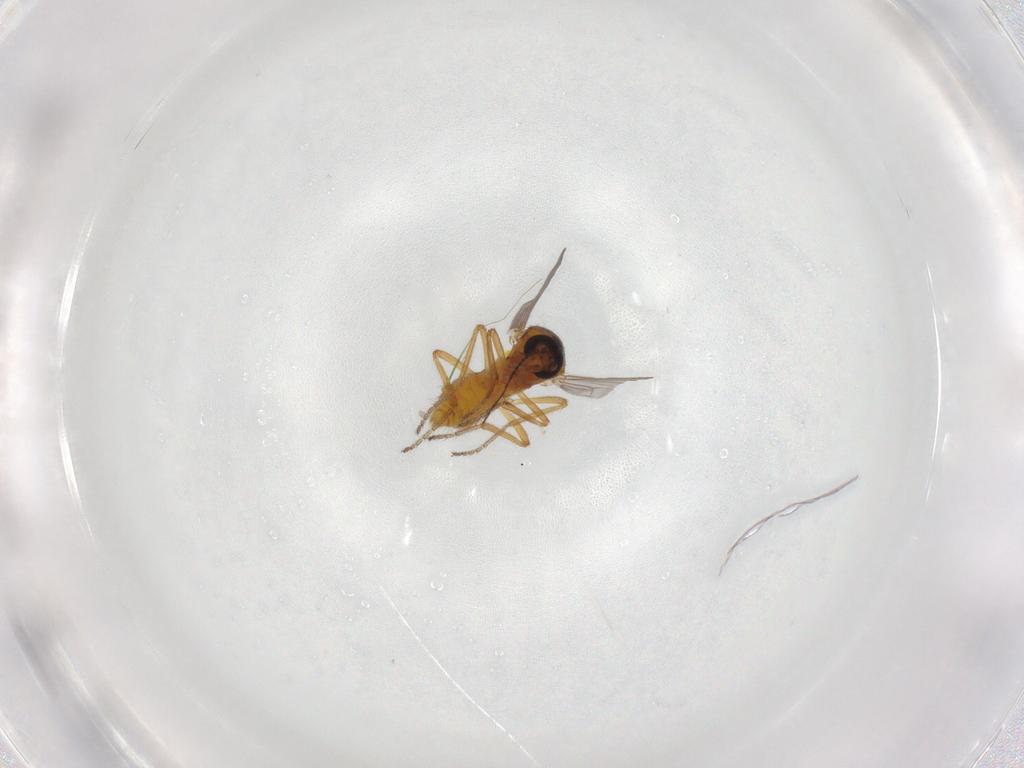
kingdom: Animalia
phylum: Arthropoda
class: Insecta
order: Diptera
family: Ceratopogonidae
